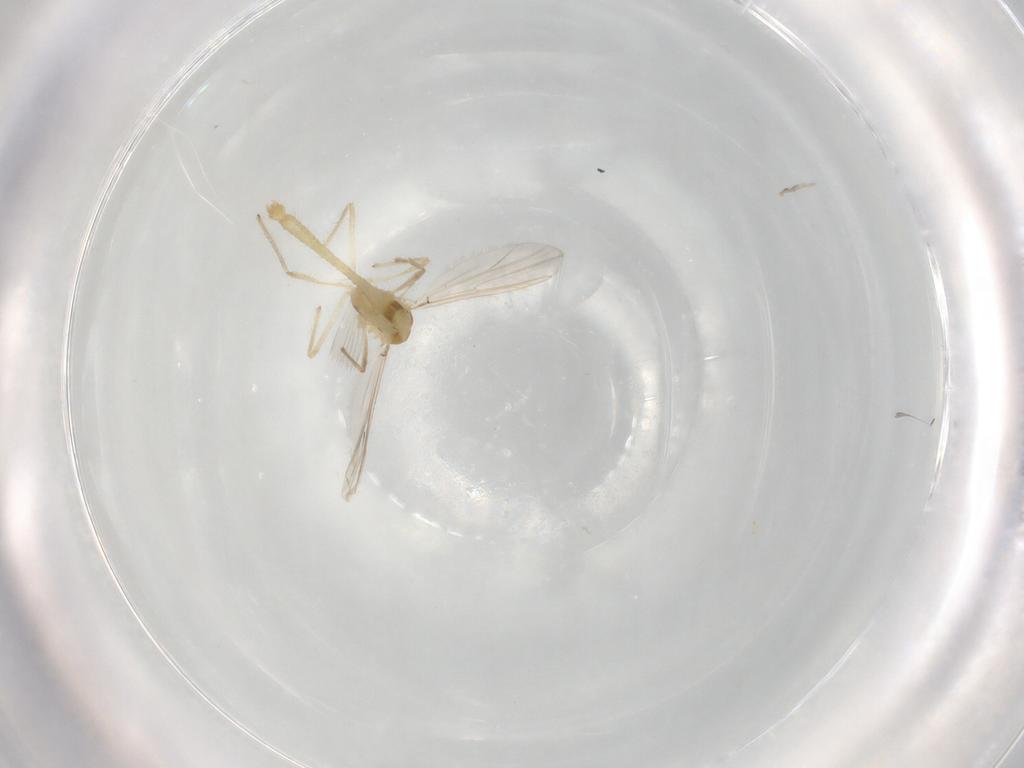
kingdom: Animalia
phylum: Arthropoda
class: Insecta
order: Diptera
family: Chironomidae
